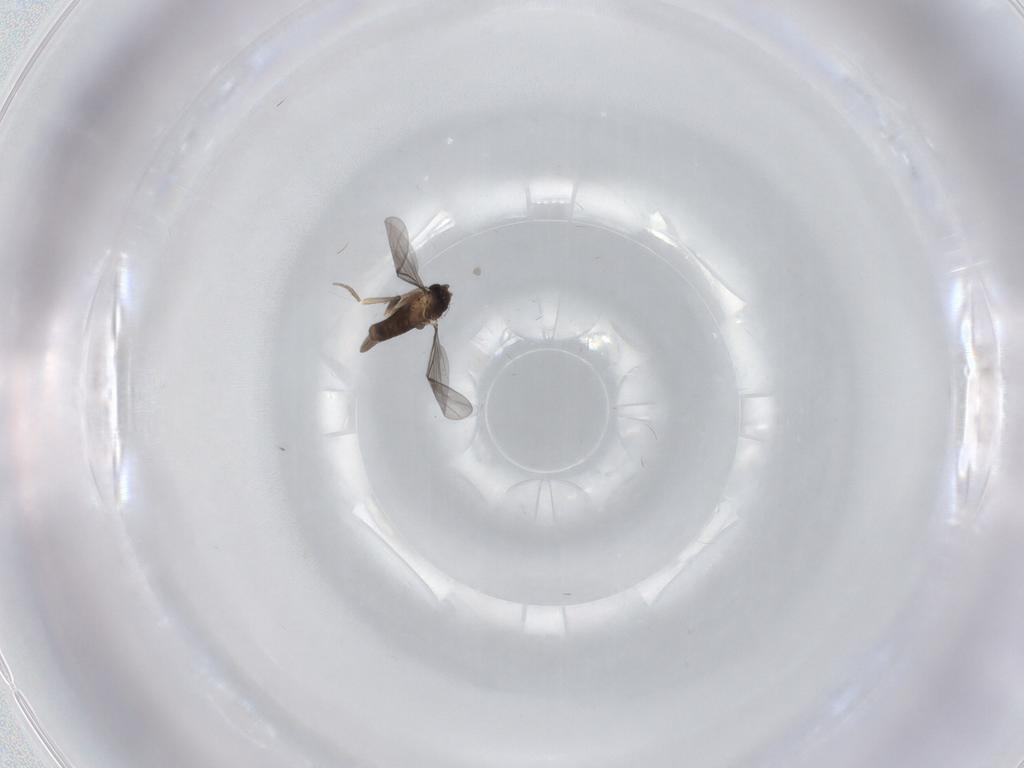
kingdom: Animalia
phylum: Arthropoda
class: Insecta
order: Diptera
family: Chironomidae
